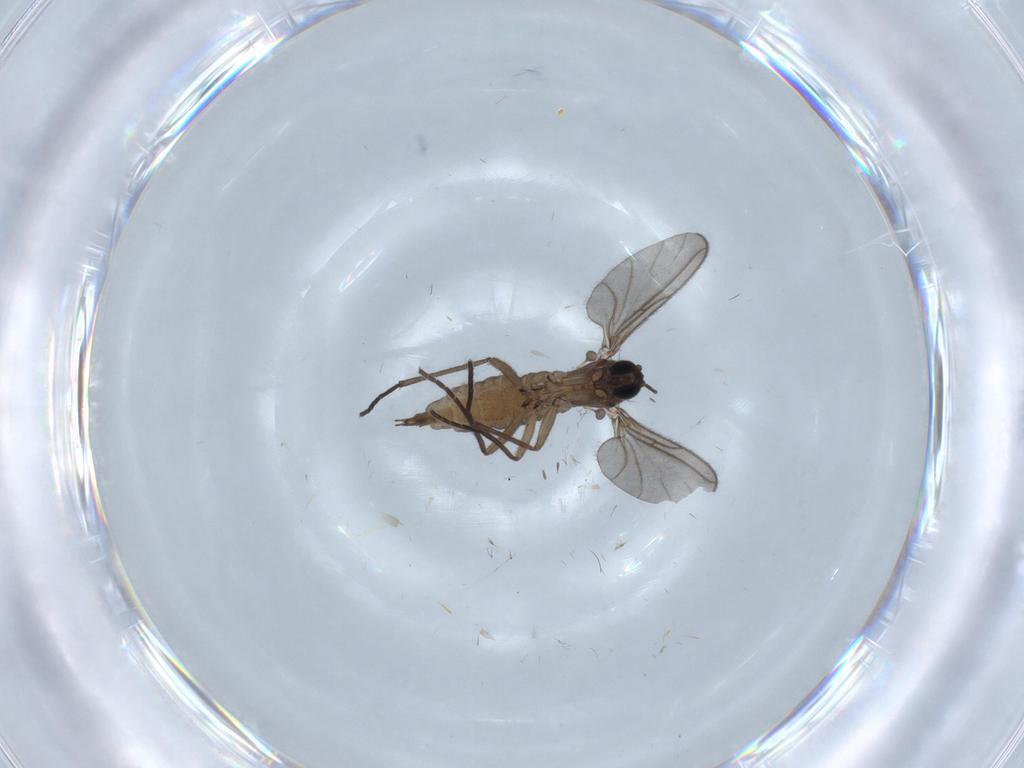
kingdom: Animalia
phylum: Arthropoda
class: Insecta
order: Diptera
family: Sciaridae
